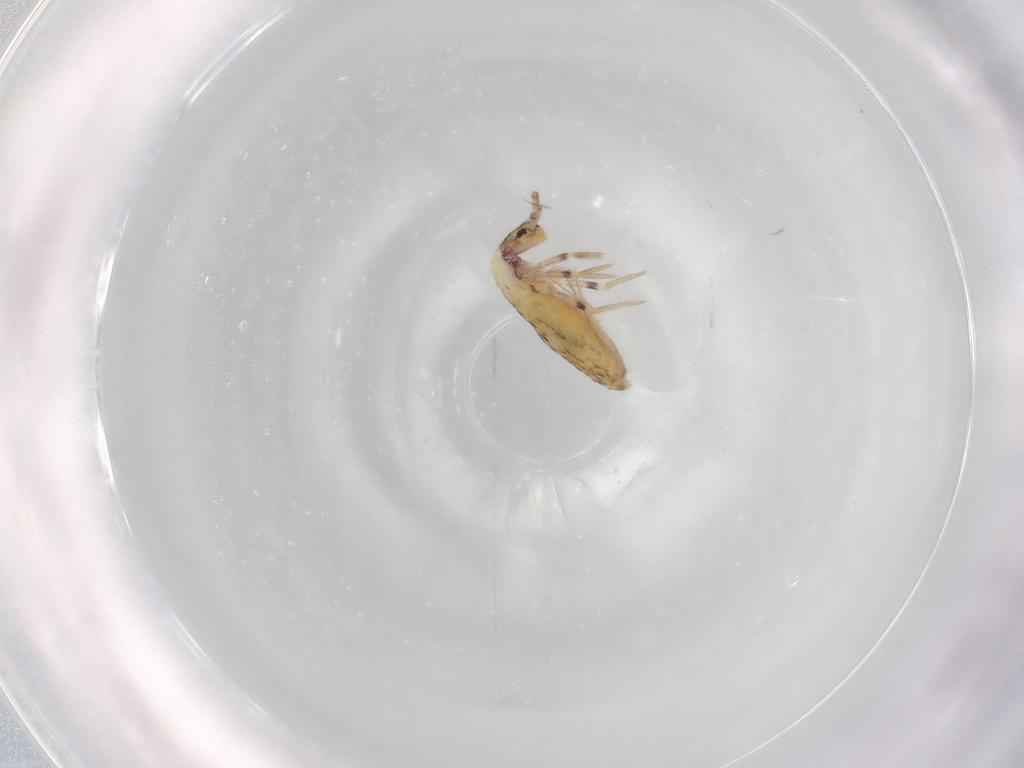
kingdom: Animalia
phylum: Arthropoda
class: Collembola
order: Entomobryomorpha
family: Entomobryidae
